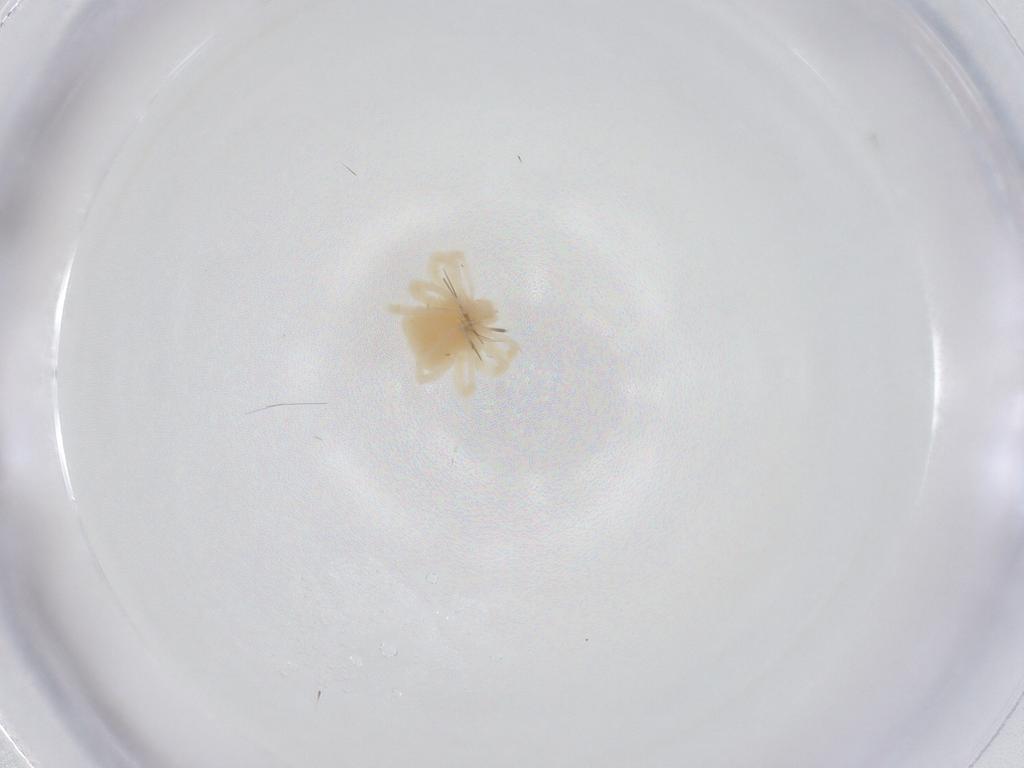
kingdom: Animalia
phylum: Arthropoda
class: Arachnida
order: Trombidiformes
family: Anystidae
